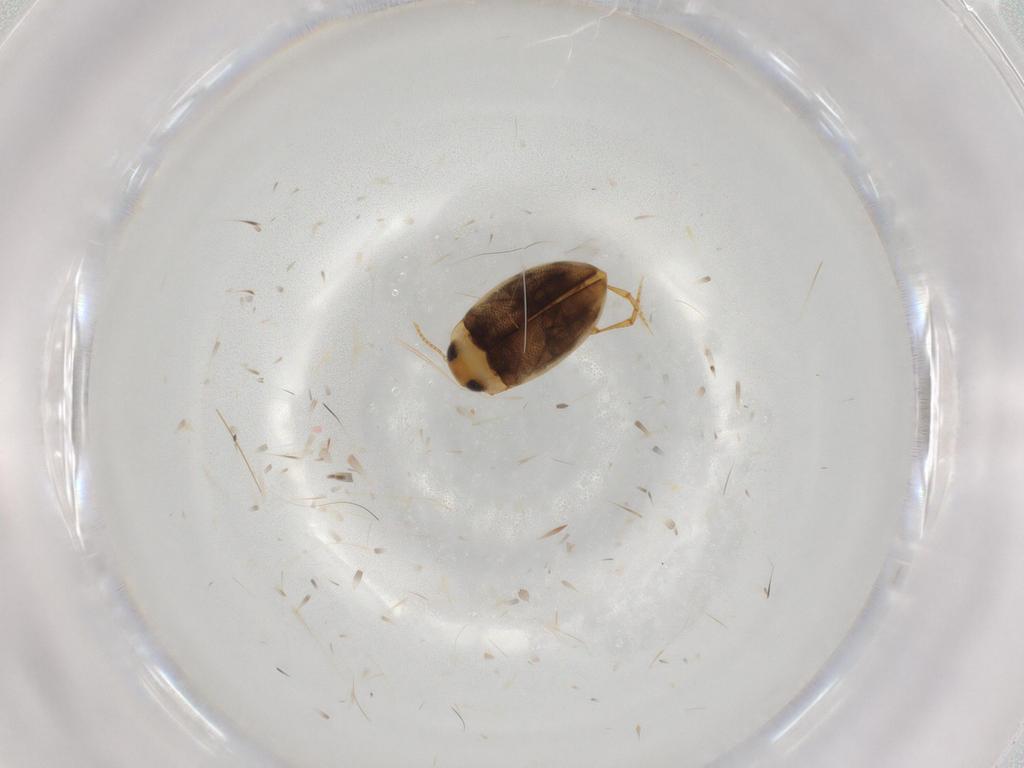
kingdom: Animalia
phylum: Arthropoda
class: Insecta
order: Coleoptera
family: Dytiscidae
